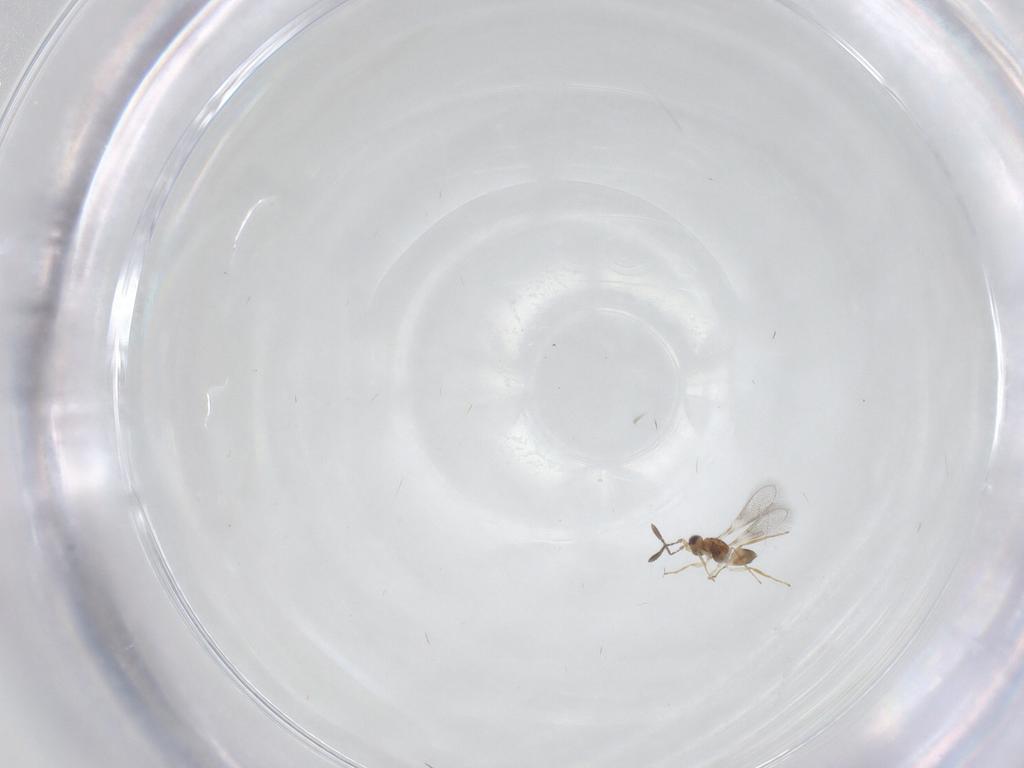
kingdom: Animalia
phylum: Arthropoda
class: Insecta
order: Hymenoptera
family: Mymaridae
